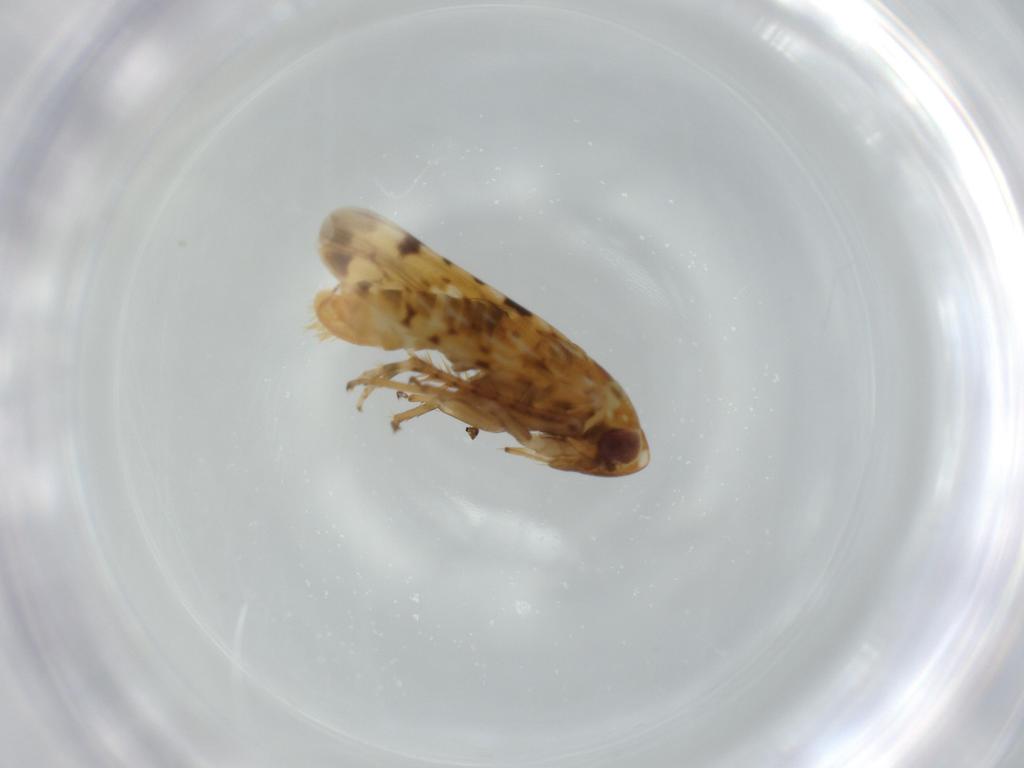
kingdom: Animalia
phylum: Arthropoda
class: Insecta
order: Hemiptera
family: Cicadellidae
